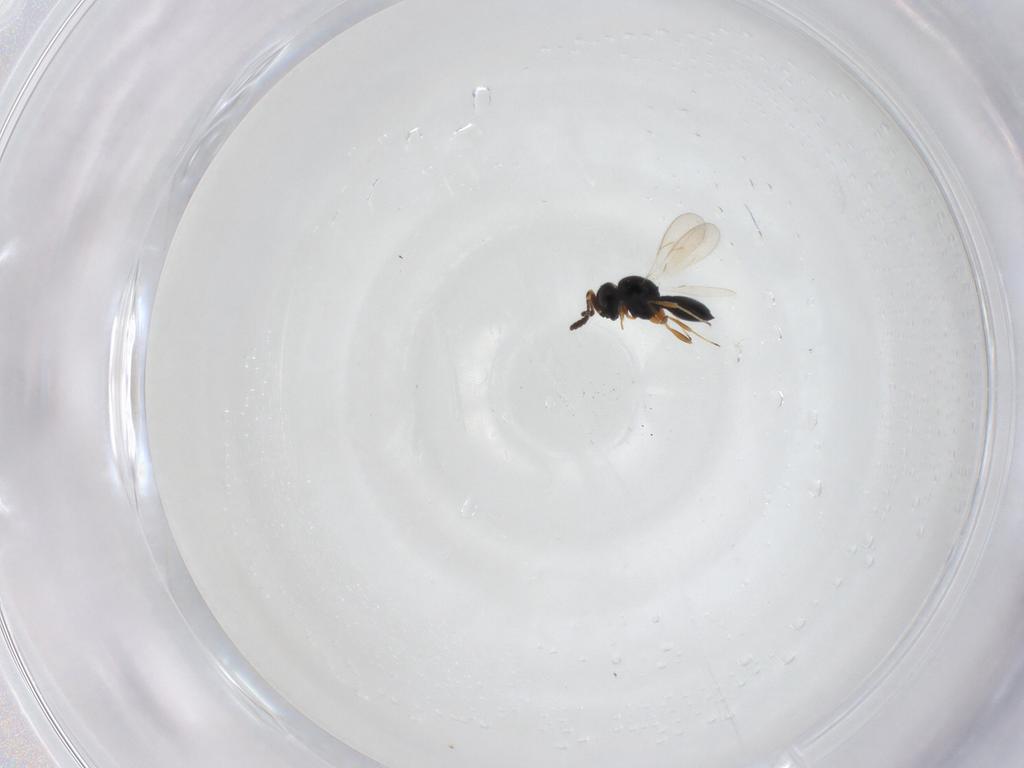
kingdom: Animalia
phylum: Arthropoda
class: Insecta
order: Hymenoptera
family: Scelionidae
